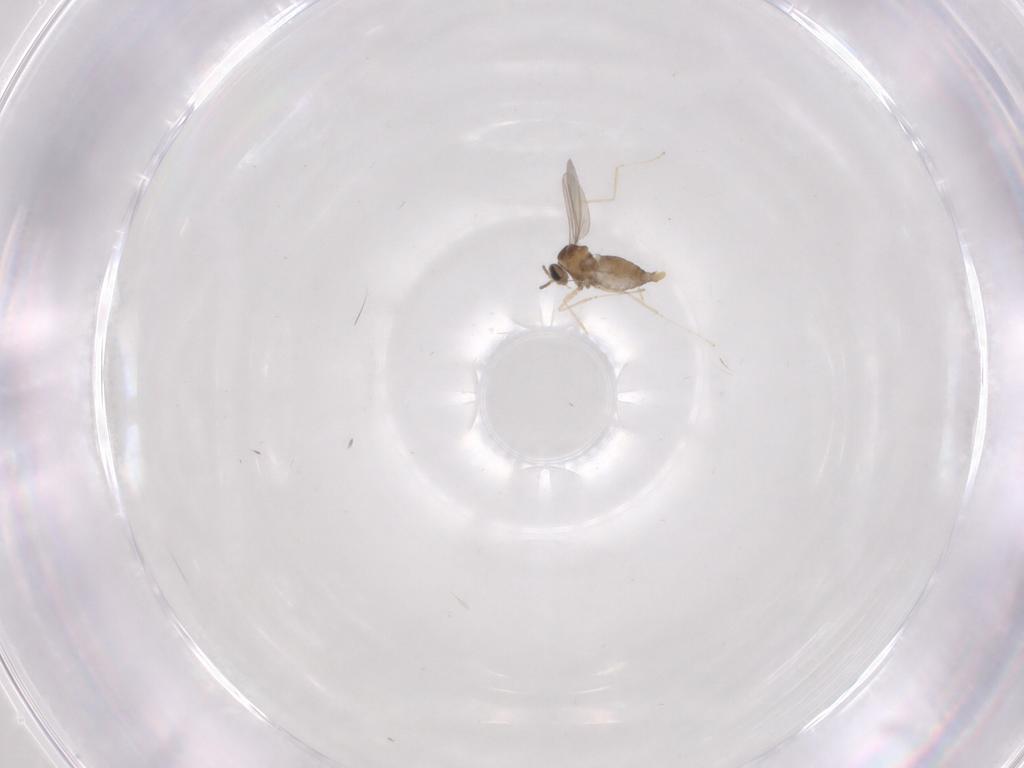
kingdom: Animalia
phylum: Arthropoda
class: Insecta
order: Diptera
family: Cecidomyiidae
